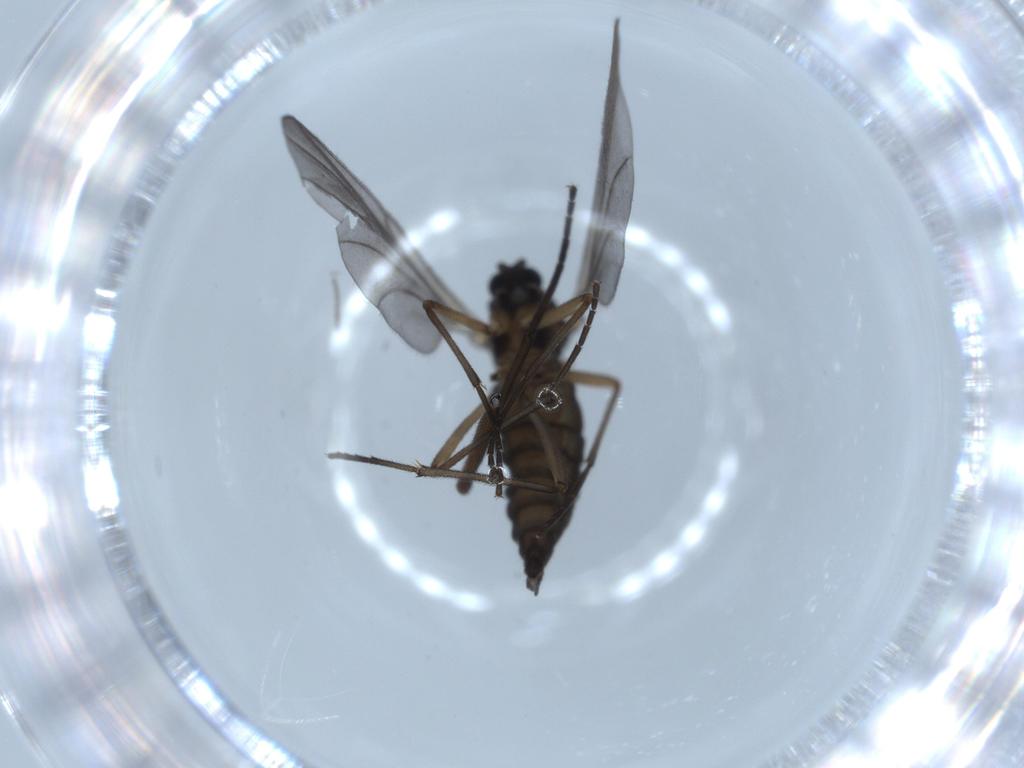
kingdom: Animalia
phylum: Arthropoda
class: Insecta
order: Diptera
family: Sciaridae
